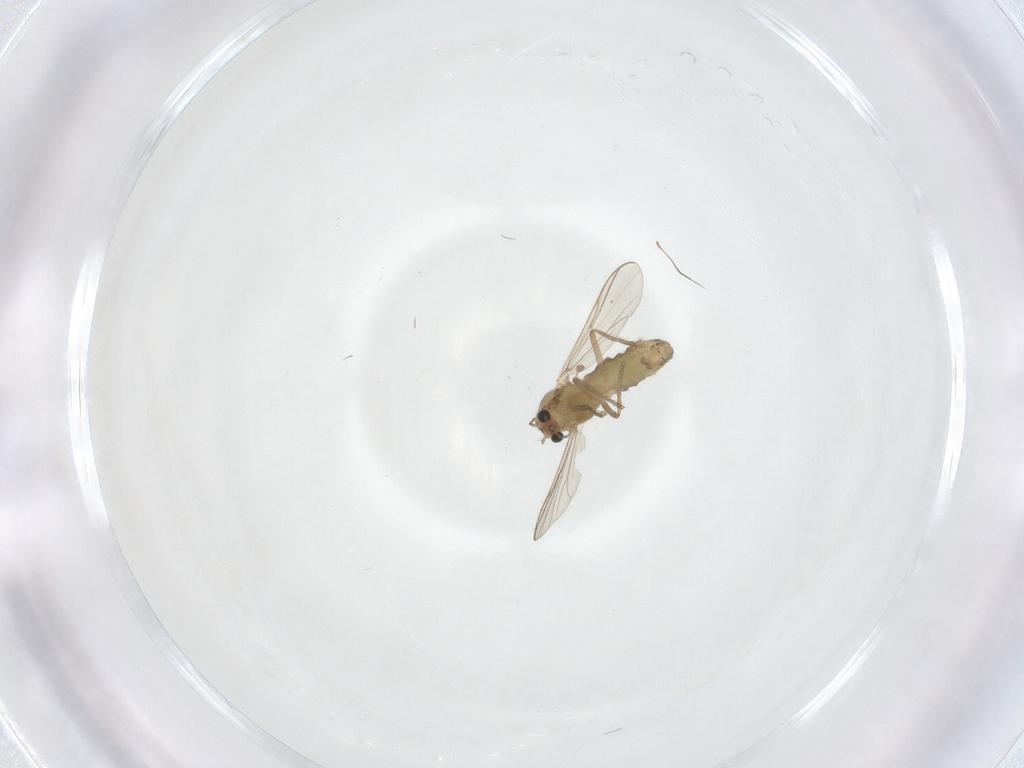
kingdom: Animalia
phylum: Arthropoda
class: Insecta
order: Diptera
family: Chironomidae
